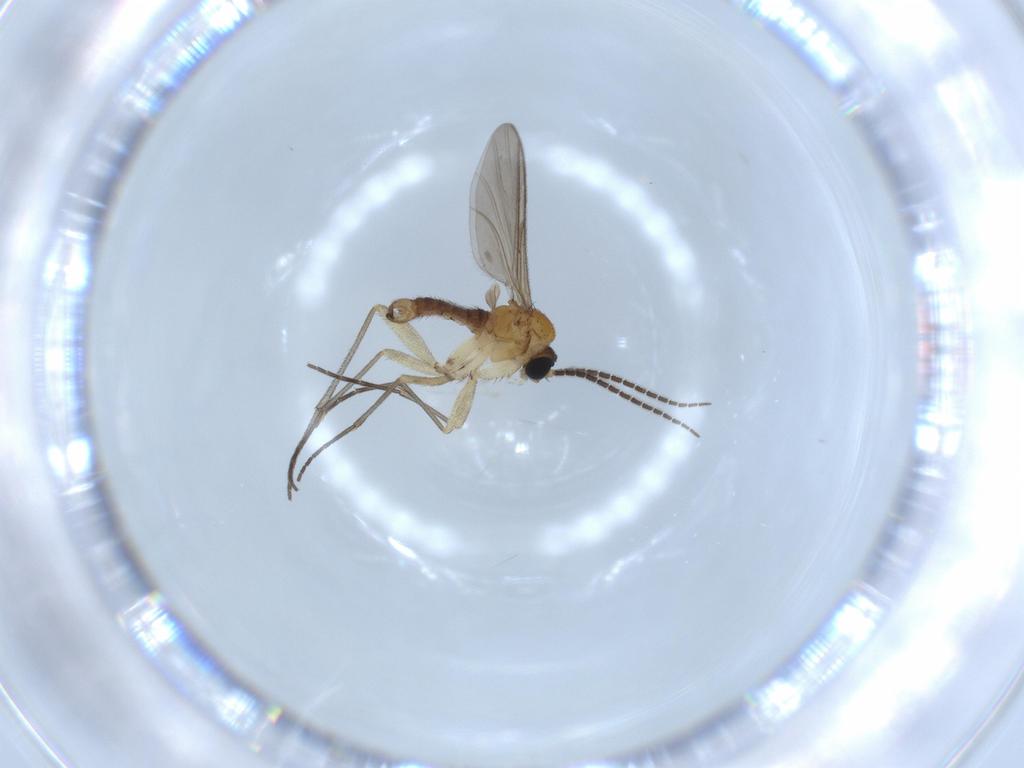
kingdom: Animalia
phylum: Arthropoda
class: Insecta
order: Diptera
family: Sciaridae
